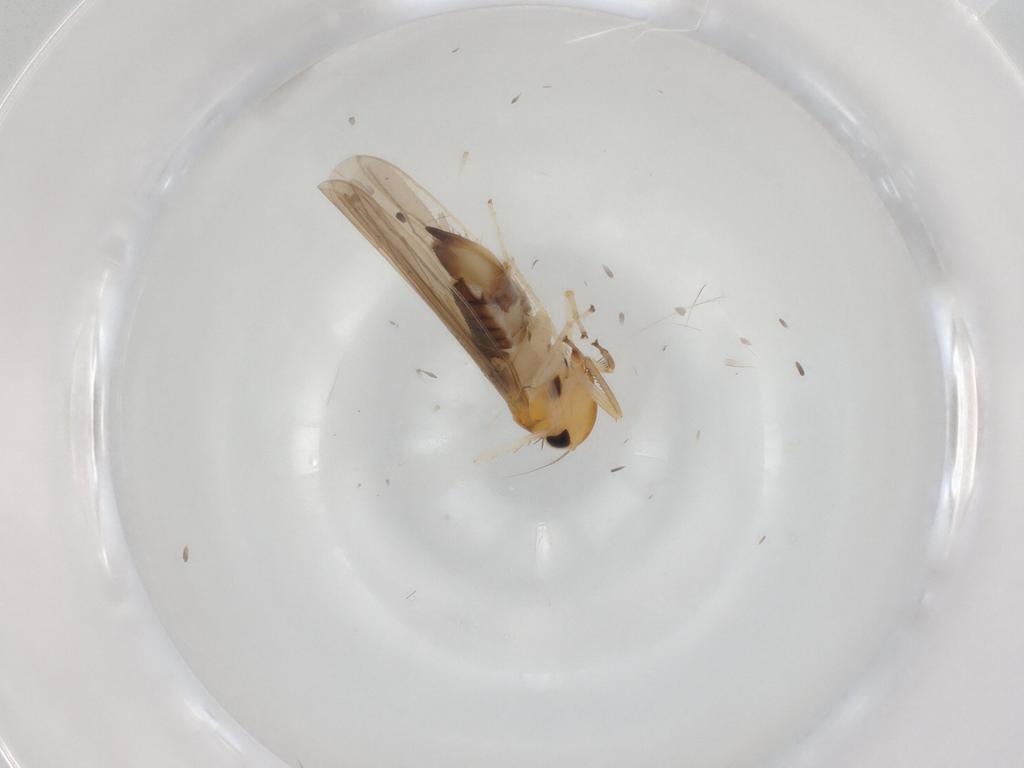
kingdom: Animalia
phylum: Arthropoda
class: Insecta
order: Hemiptera
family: Cicadellidae
